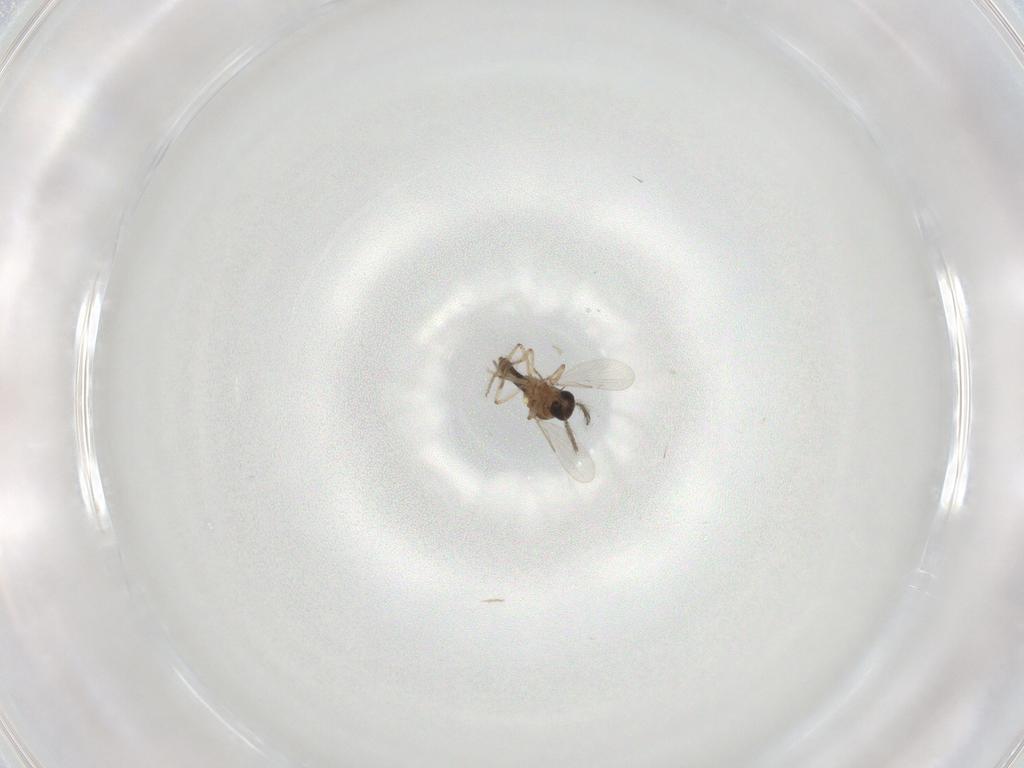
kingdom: Animalia
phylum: Arthropoda
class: Insecta
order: Diptera
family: Ceratopogonidae
